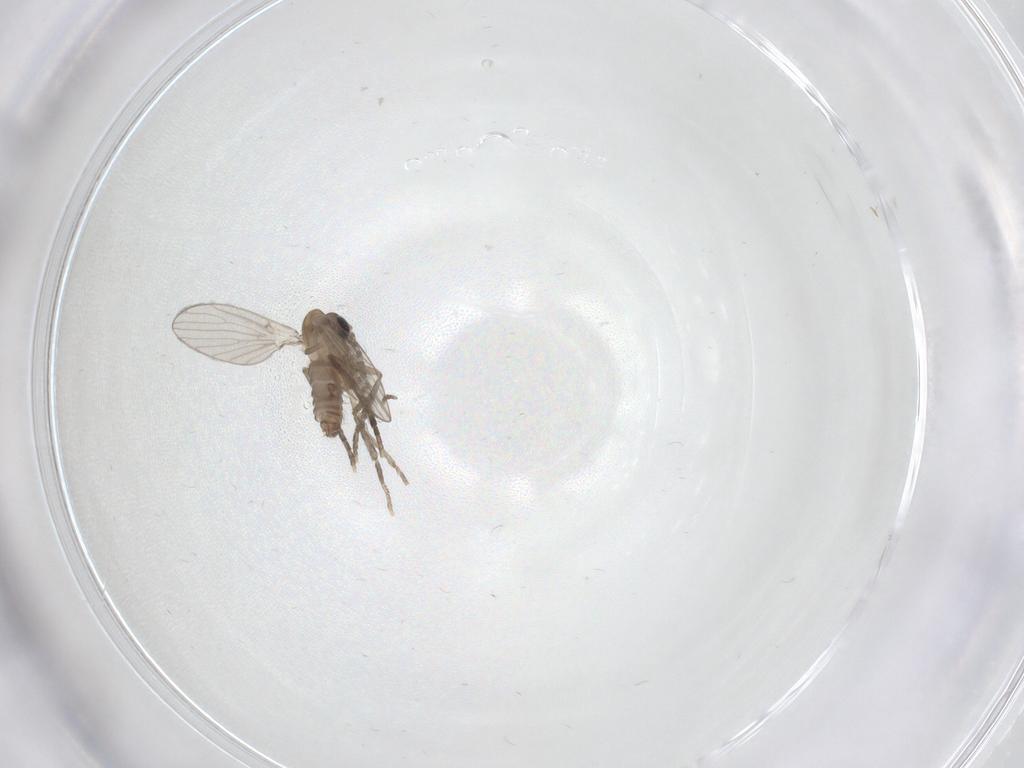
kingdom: Animalia
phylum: Arthropoda
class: Insecta
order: Diptera
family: Psychodidae
